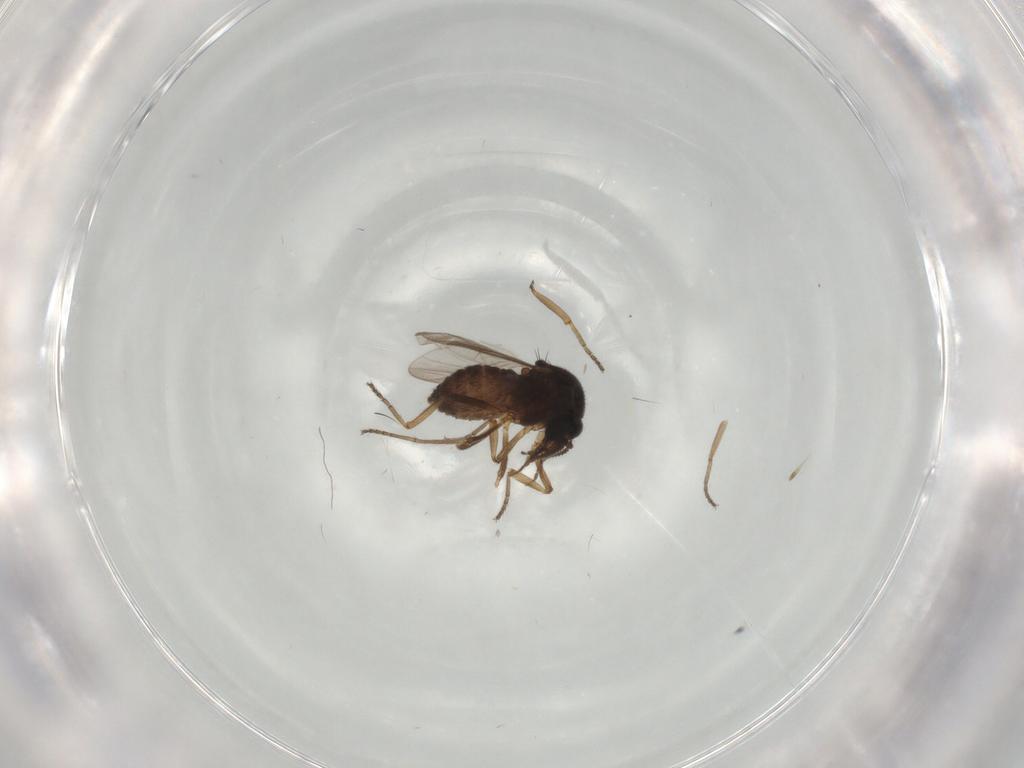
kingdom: Animalia
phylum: Arthropoda
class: Insecta
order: Diptera
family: Ceratopogonidae
